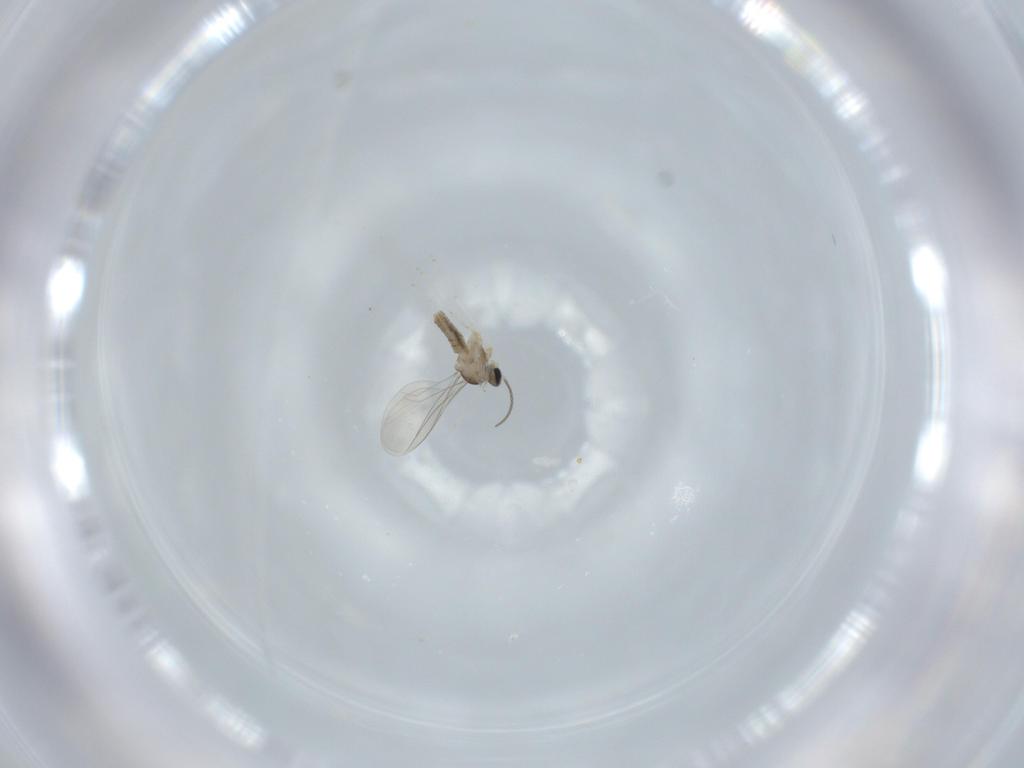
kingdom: Animalia
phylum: Arthropoda
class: Insecta
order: Diptera
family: Cecidomyiidae
